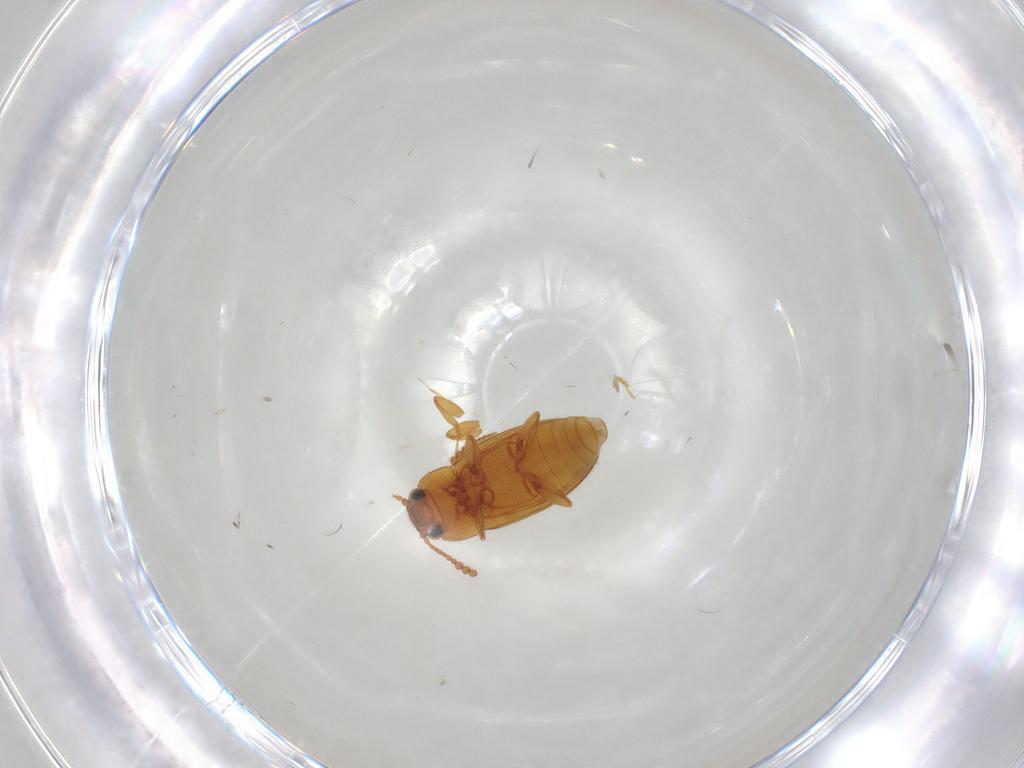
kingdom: Animalia
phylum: Arthropoda
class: Insecta
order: Coleoptera
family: Erotylidae
